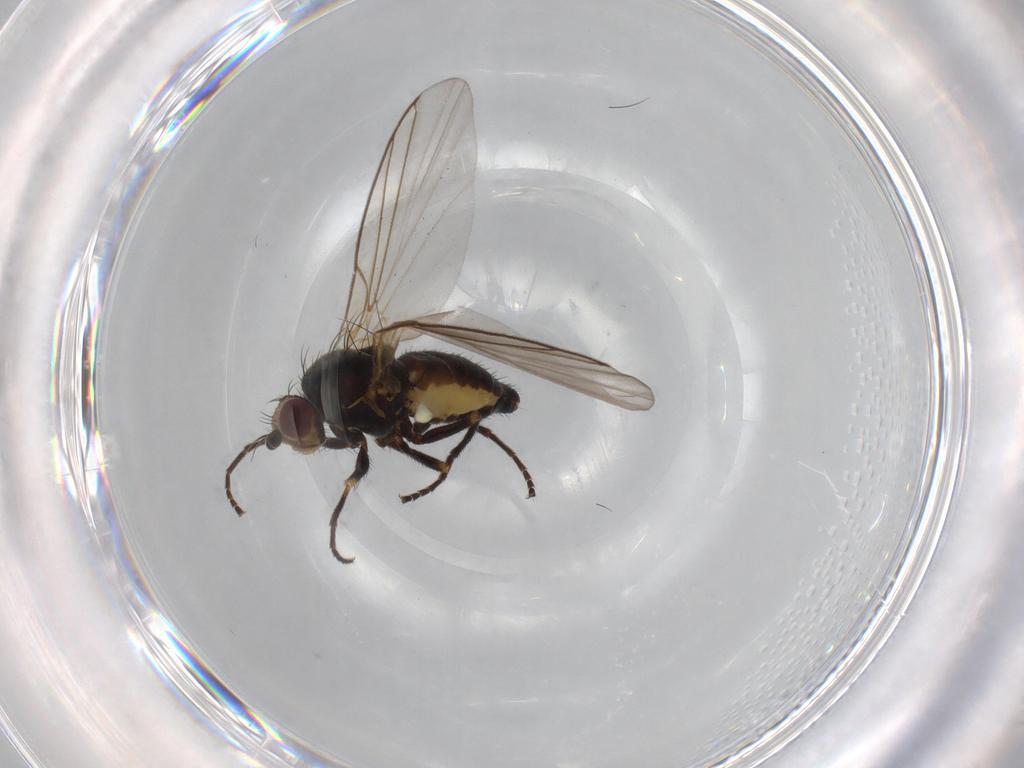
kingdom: Animalia
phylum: Arthropoda
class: Insecta
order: Diptera
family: Agromyzidae
